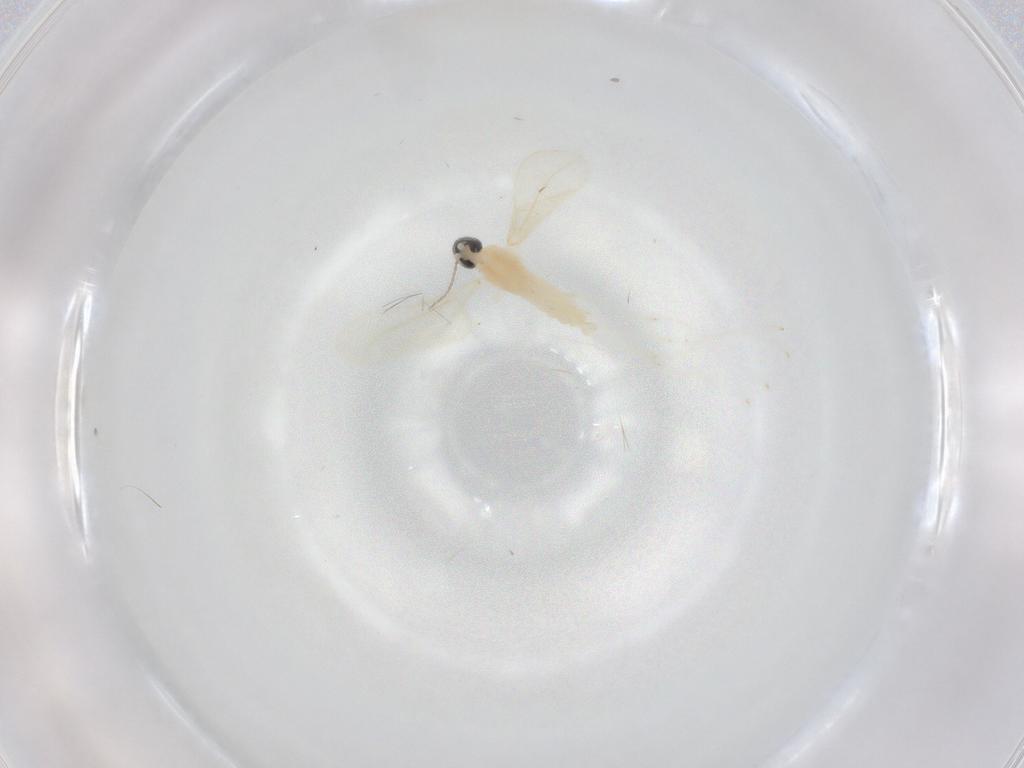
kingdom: Animalia
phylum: Arthropoda
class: Insecta
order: Diptera
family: Cecidomyiidae
